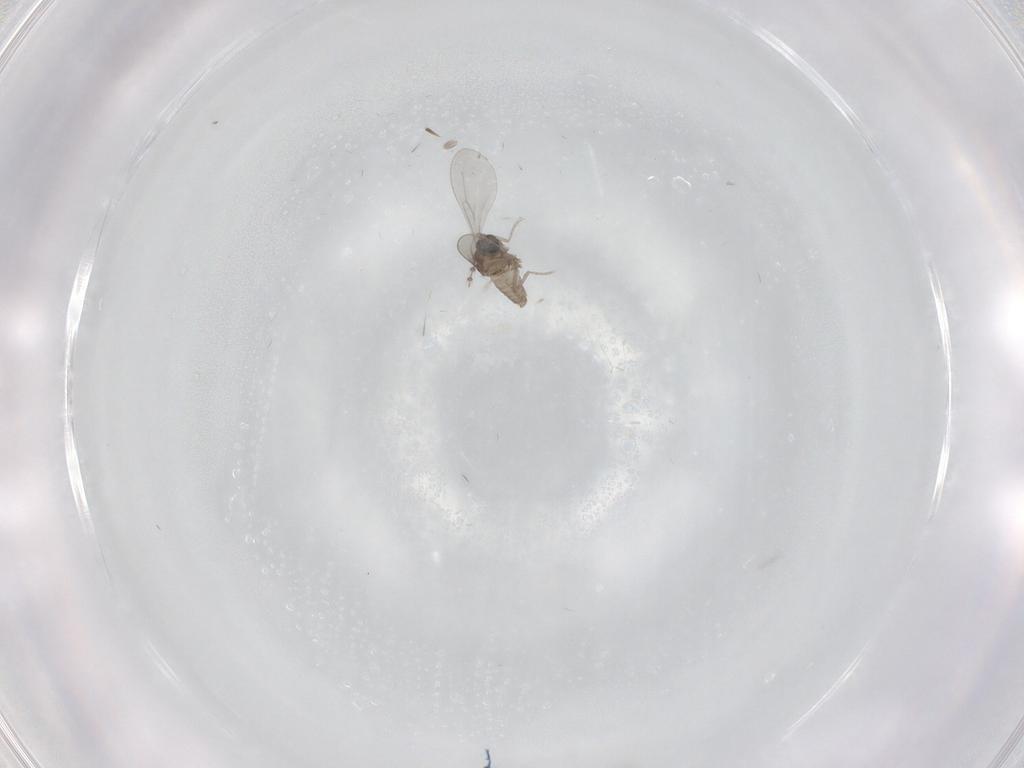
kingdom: Animalia
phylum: Arthropoda
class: Insecta
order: Diptera
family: Cecidomyiidae
